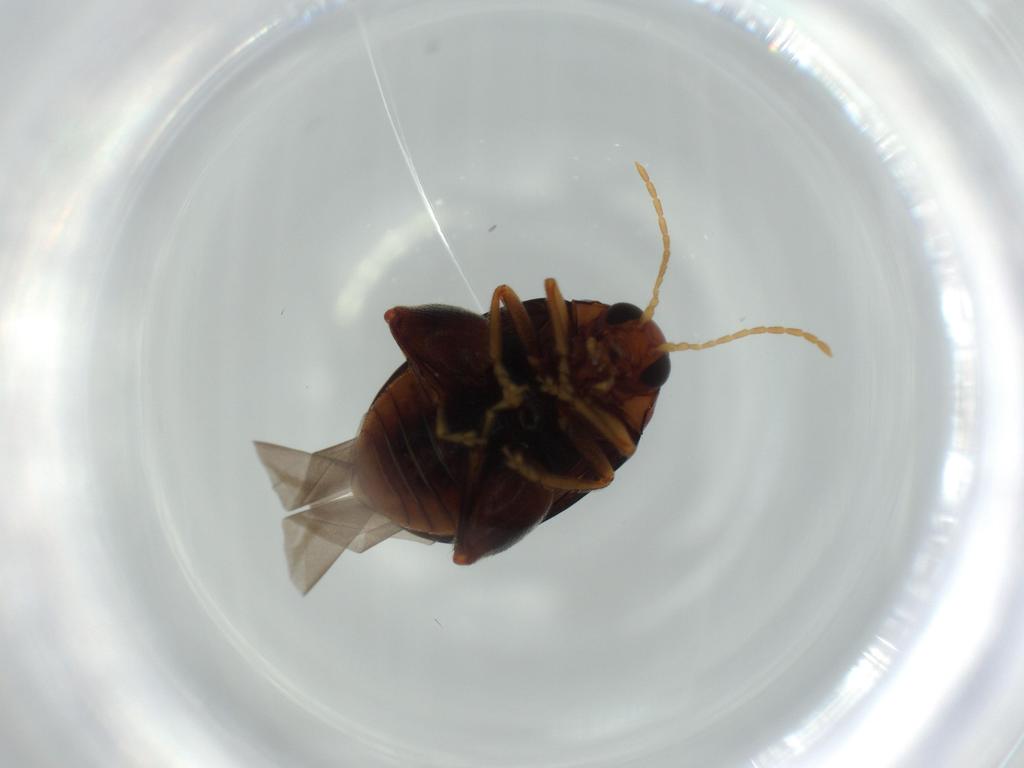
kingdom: Animalia
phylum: Arthropoda
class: Insecta
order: Coleoptera
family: Chrysomelidae
